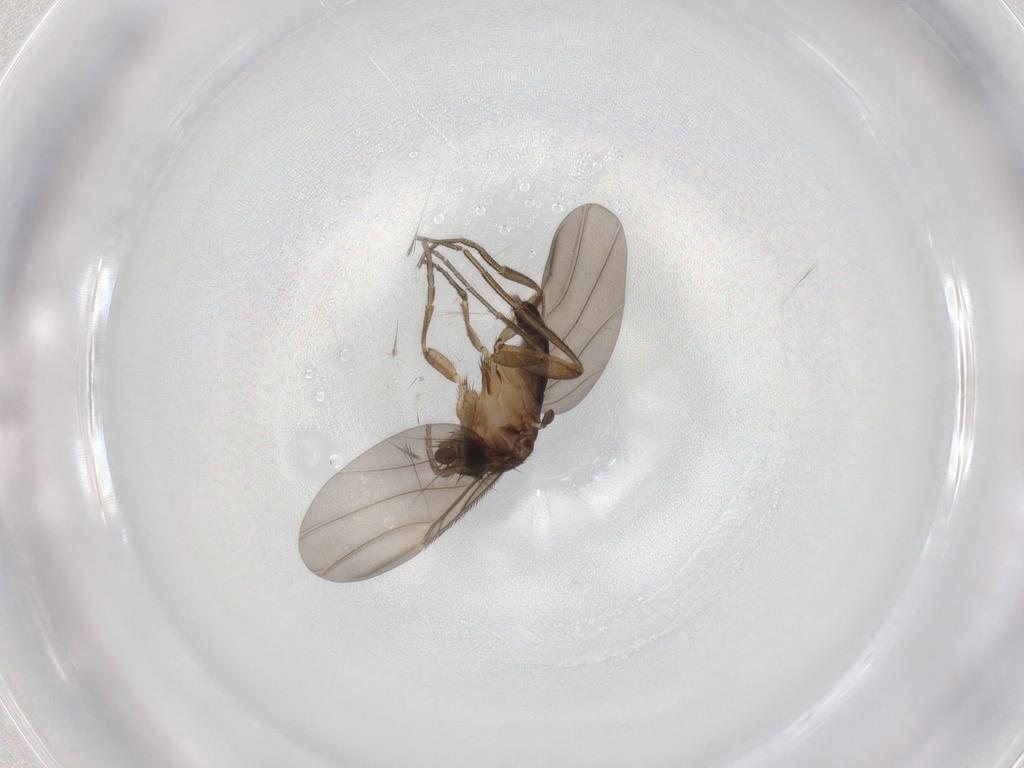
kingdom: Animalia
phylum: Arthropoda
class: Insecta
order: Diptera
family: Phoridae
